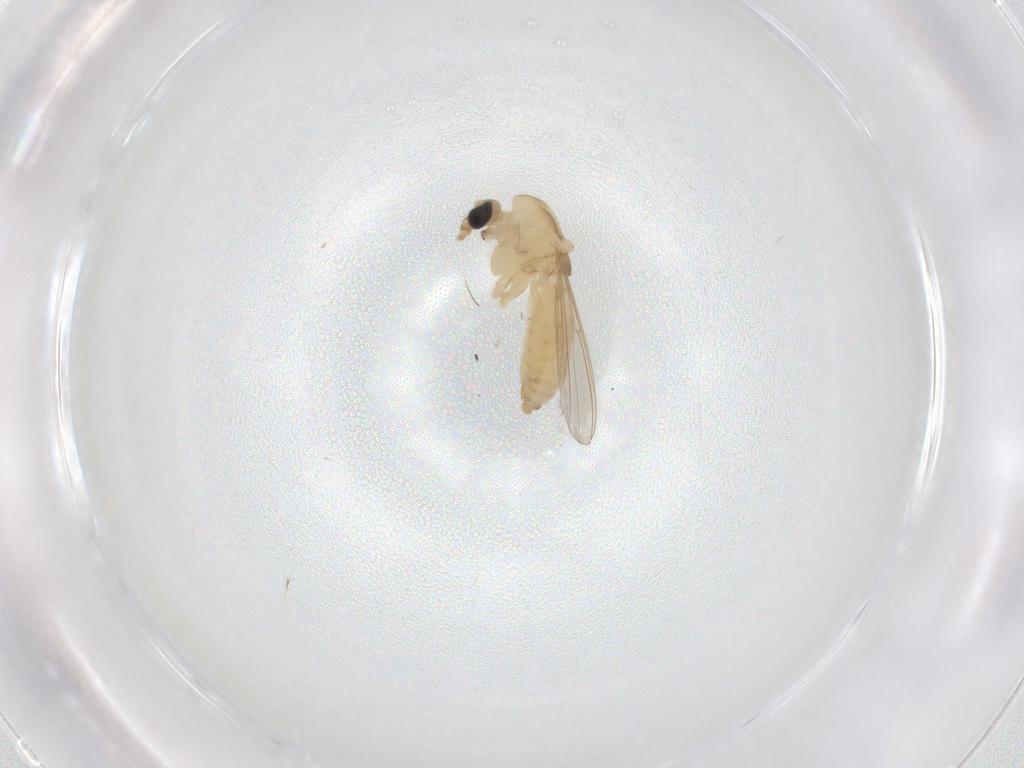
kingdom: Animalia
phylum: Arthropoda
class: Insecta
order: Diptera
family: Chironomidae
